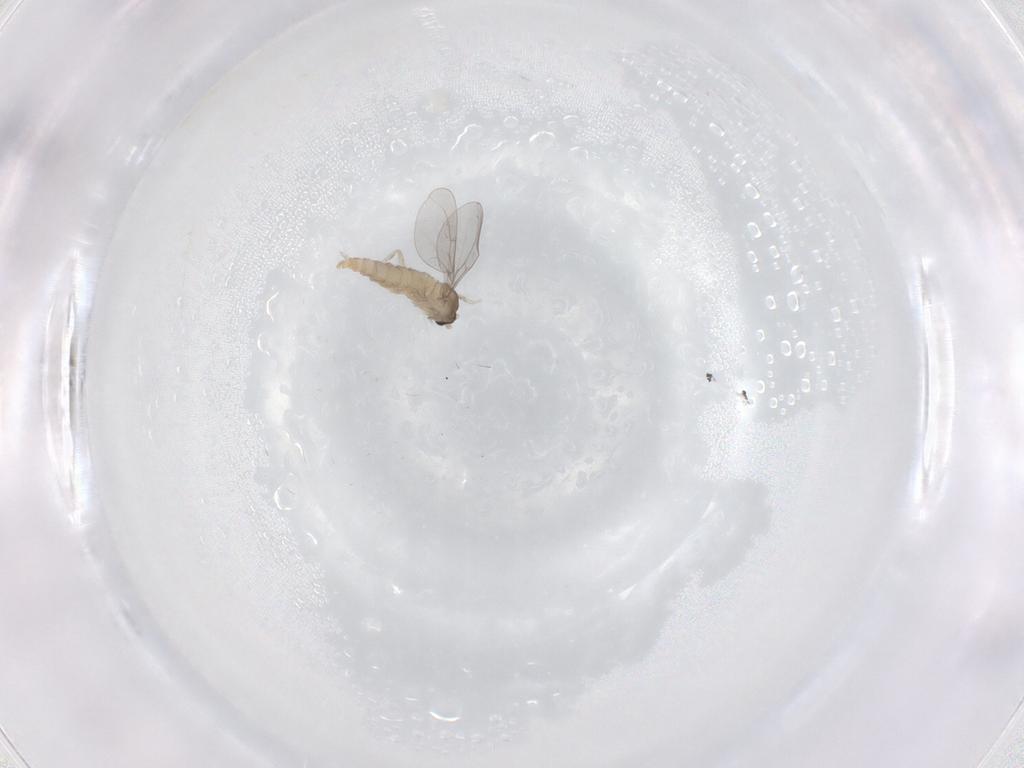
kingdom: Animalia
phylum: Arthropoda
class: Insecta
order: Diptera
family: Cecidomyiidae
